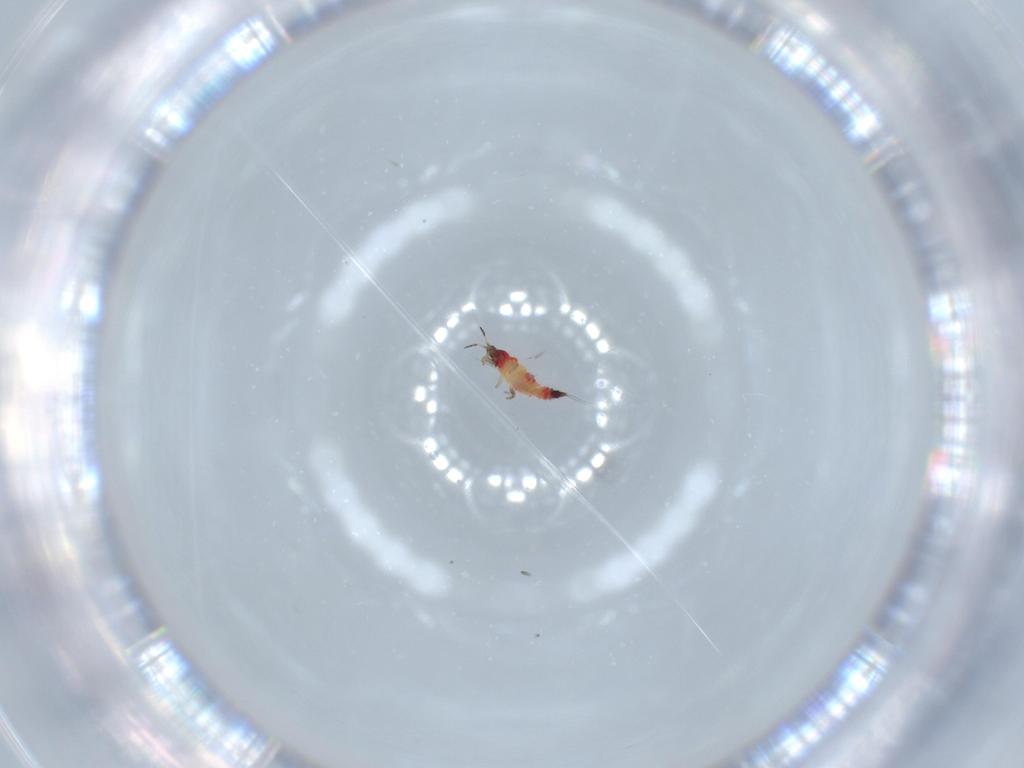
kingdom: Animalia
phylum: Arthropoda
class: Insecta
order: Thysanoptera
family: Phlaeothripidae
